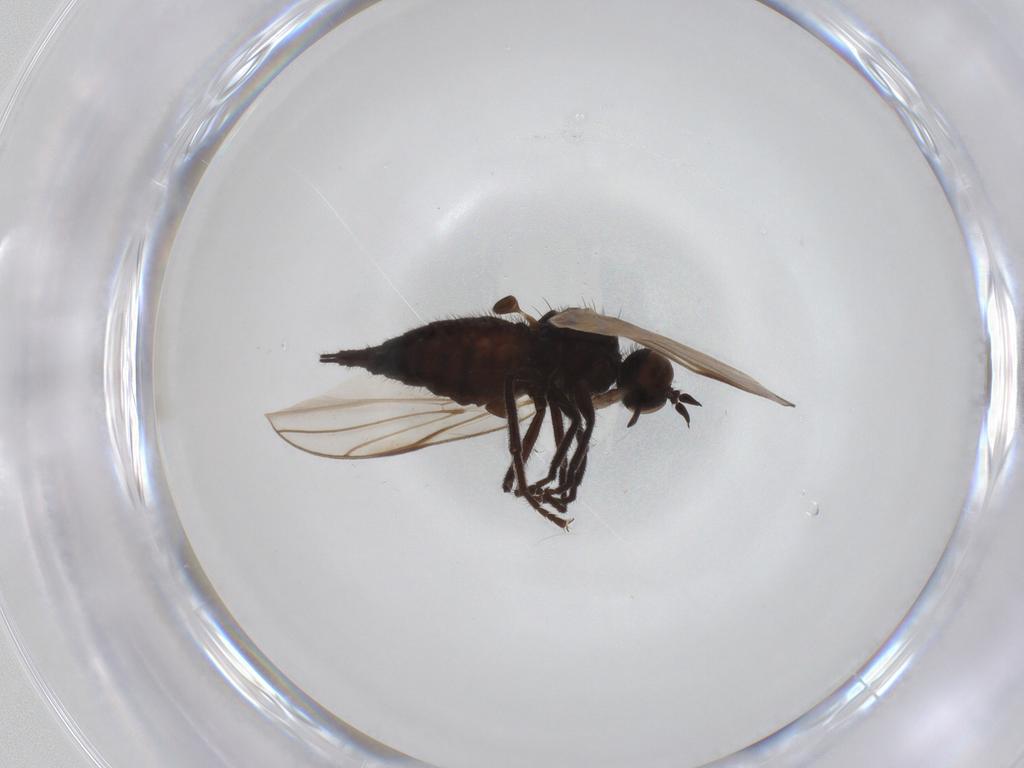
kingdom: Animalia
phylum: Arthropoda
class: Insecta
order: Diptera
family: Empididae
